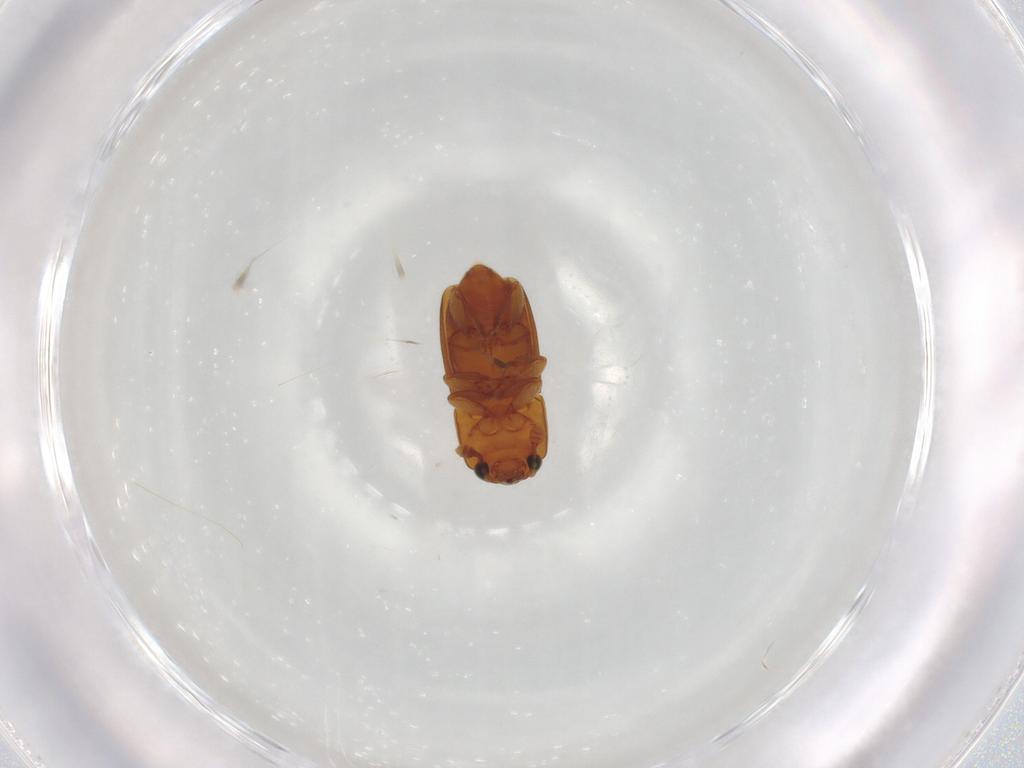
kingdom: Animalia
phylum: Arthropoda
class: Insecta
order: Coleoptera
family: Nitidulidae
